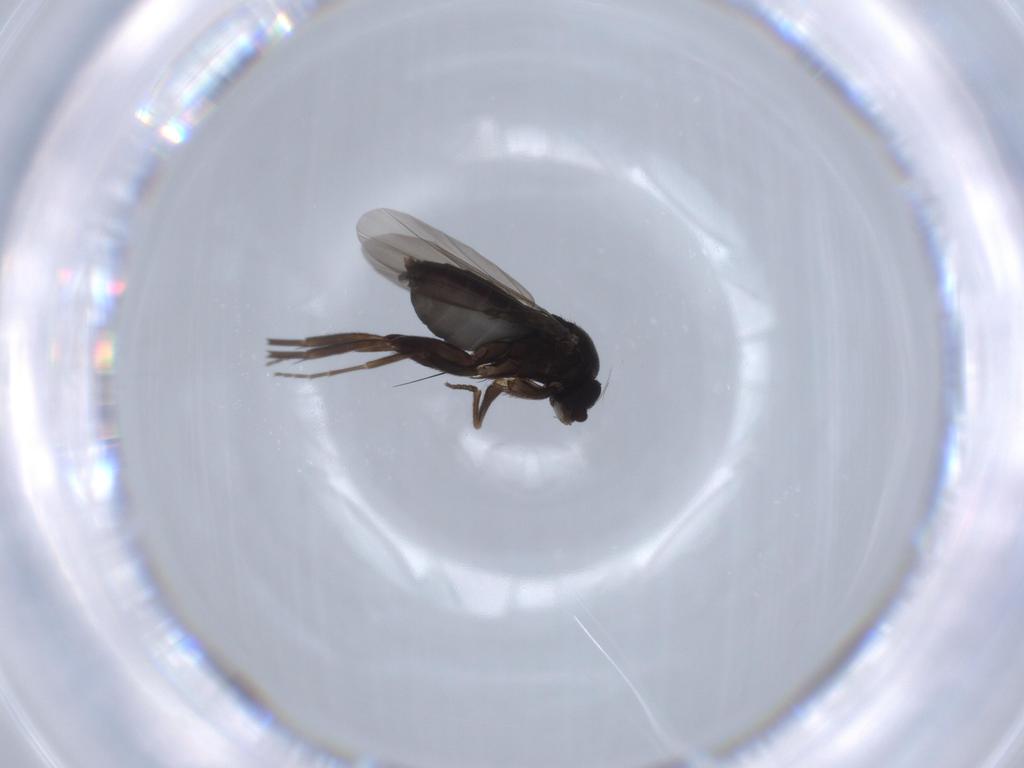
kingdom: Animalia
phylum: Arthropoda
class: Insecta
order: Diptera
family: Phoridae
